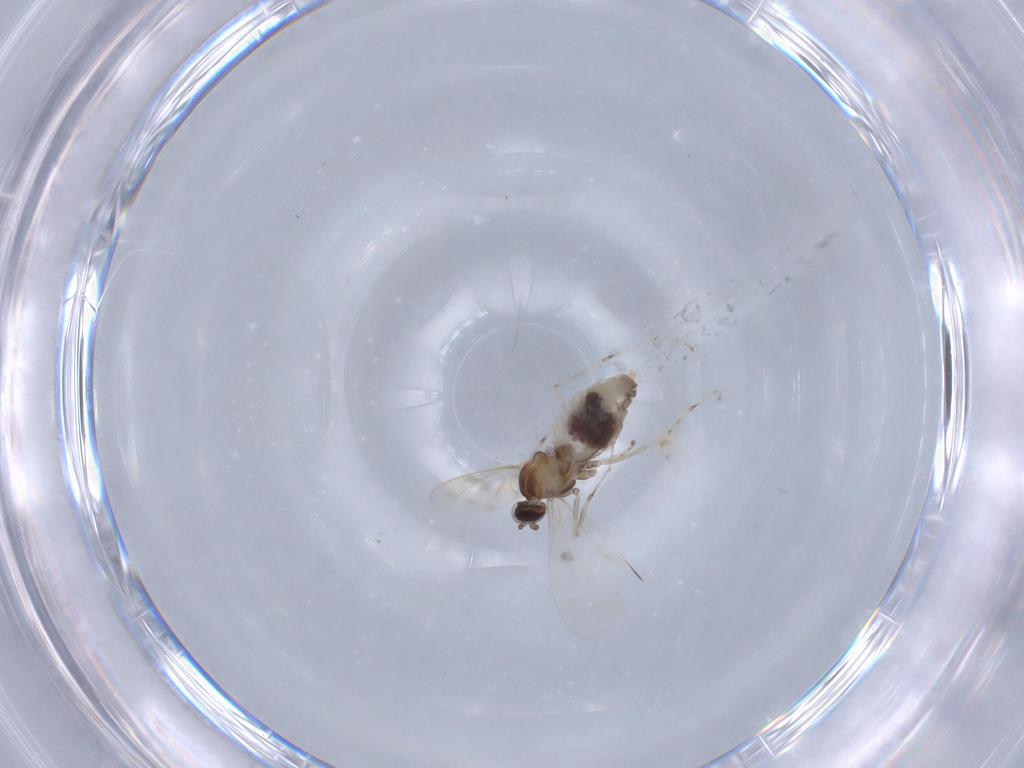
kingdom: Animalia
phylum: Arthropoda
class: Insecta
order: Diptera
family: Cecidomyiidae
